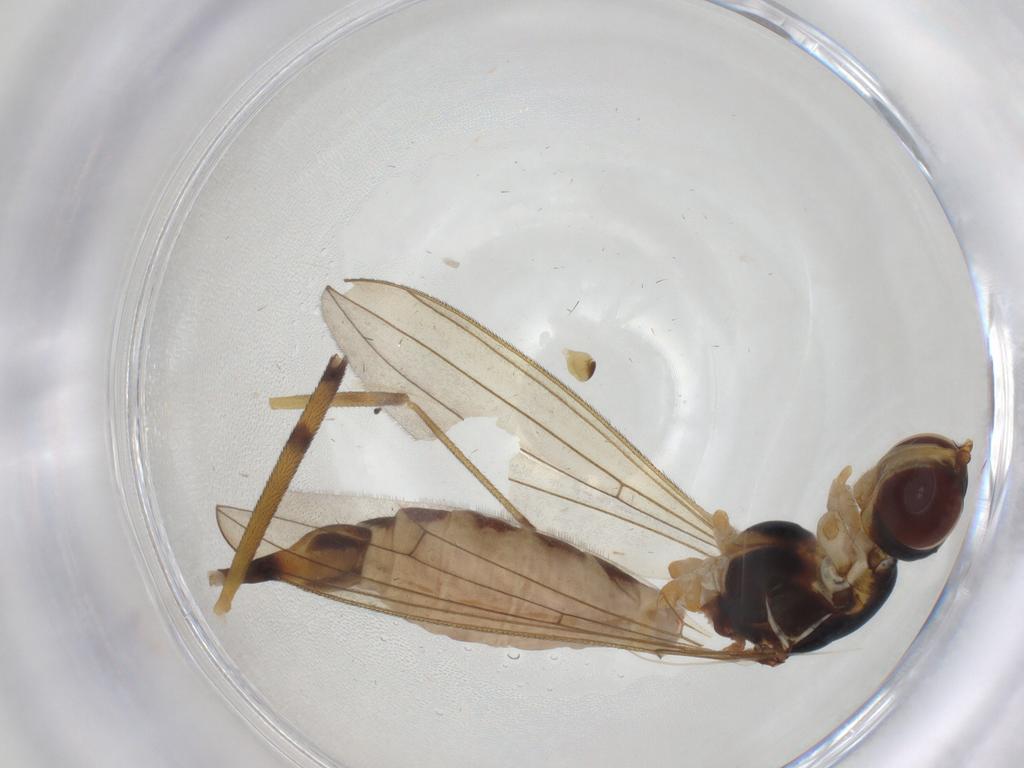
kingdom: Animalia
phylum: Arthropoda
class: Insecta
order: Diptera
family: Micropezidae
